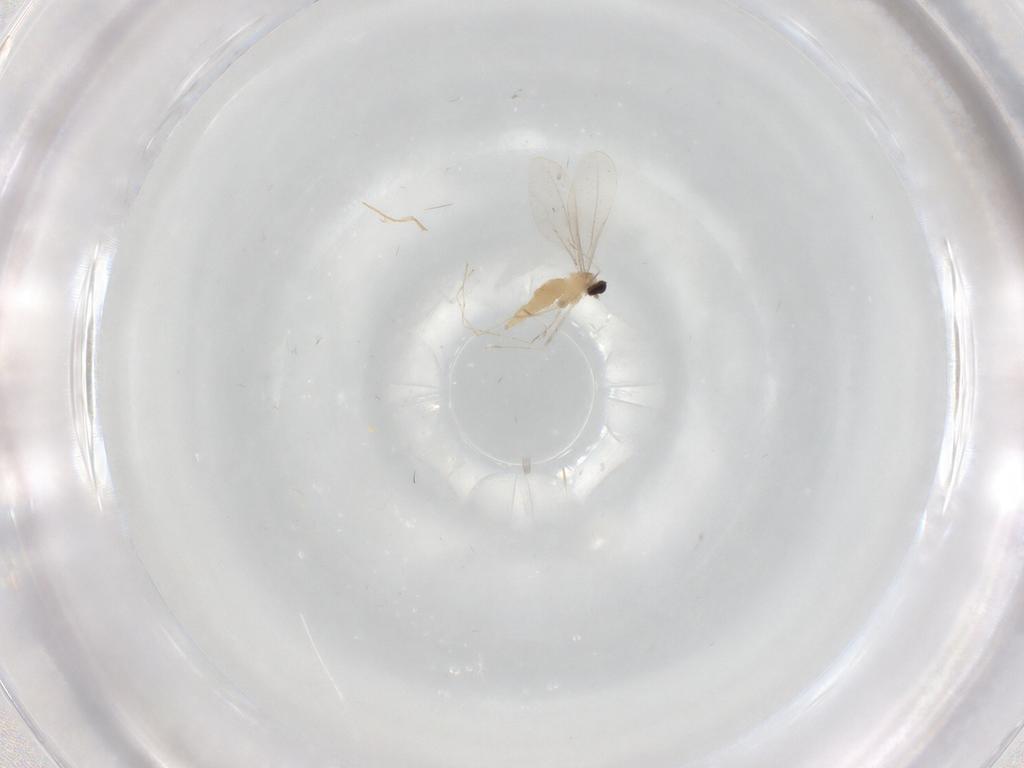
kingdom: Animalia
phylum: Arthropoda
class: Insecta
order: Diptera
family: Cecidomyiidae
